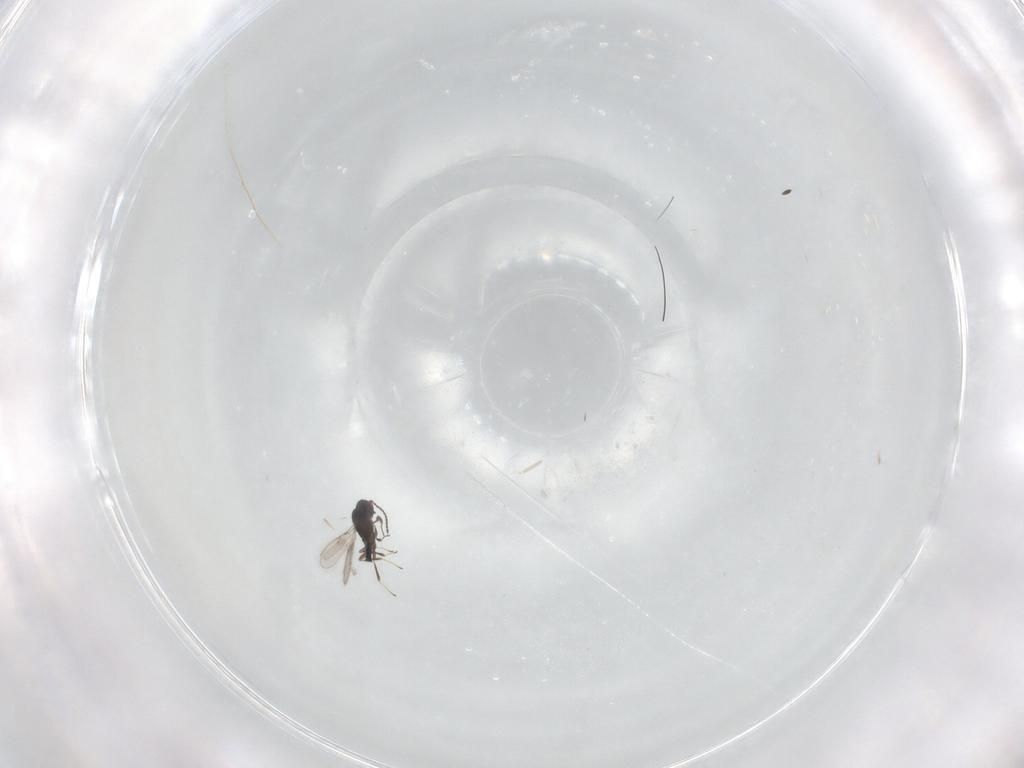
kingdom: Animalia
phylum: Arthropoda
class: Insecta
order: Hymenoptera
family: Scelionidae
